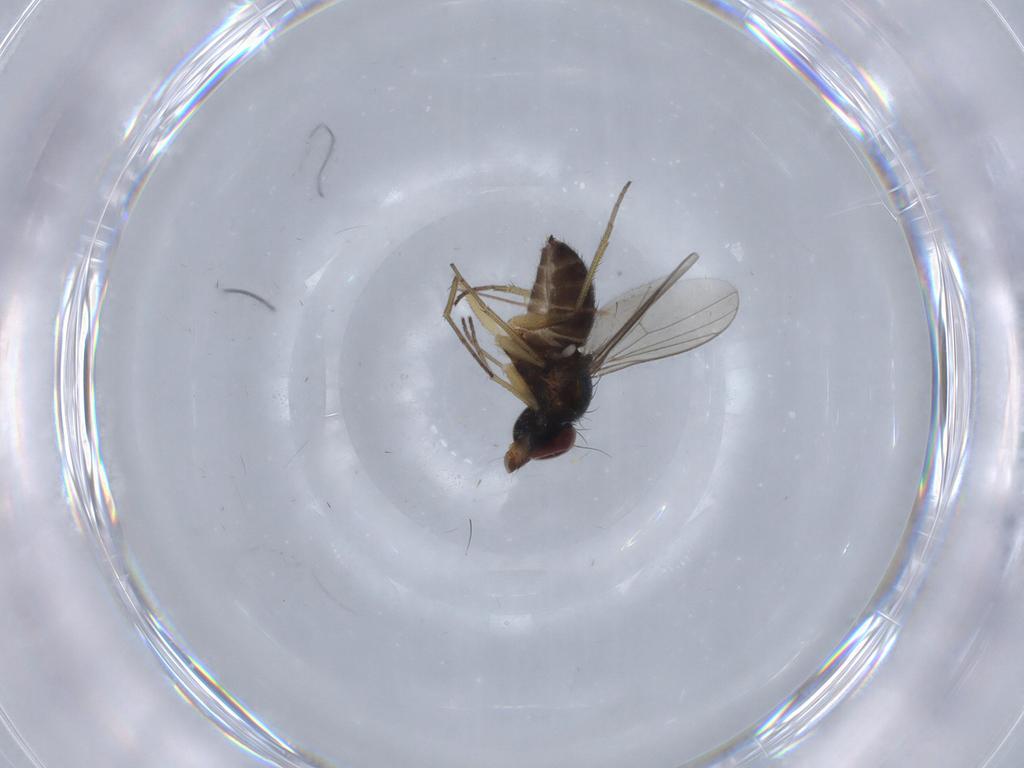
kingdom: Animalia
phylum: Arthropoda
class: Insecta
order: Diptera
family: Dolichopodidae
